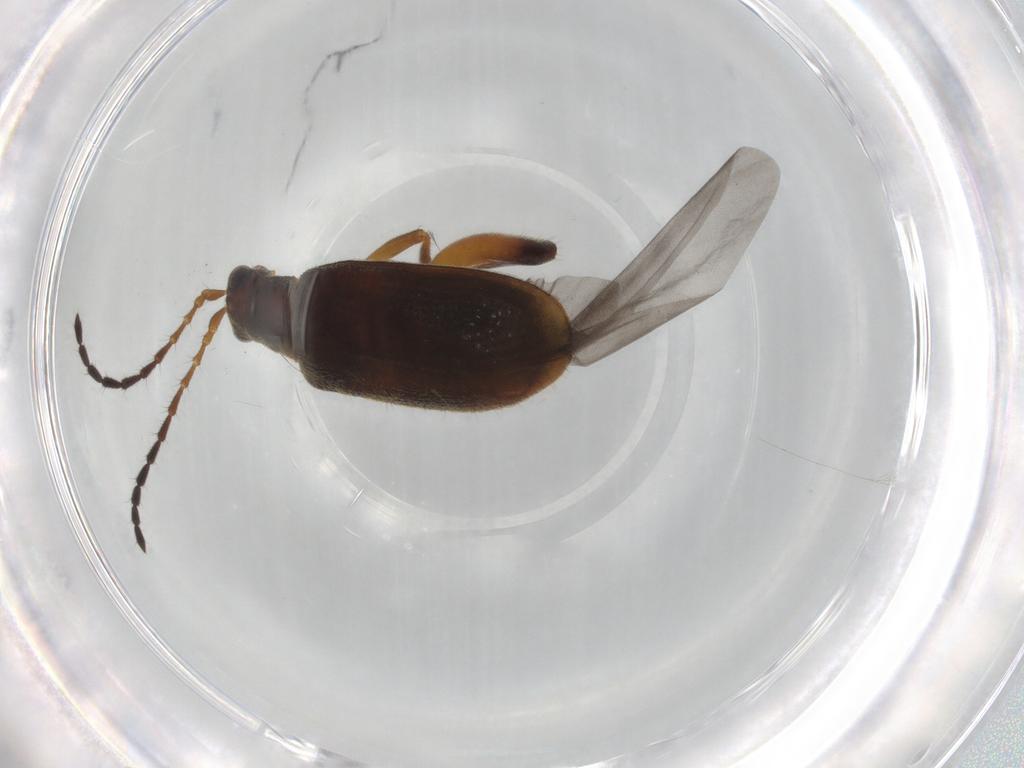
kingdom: Animalia
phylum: Arthropoda
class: Insecta
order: Coleoptera
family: Chrysomelidae
